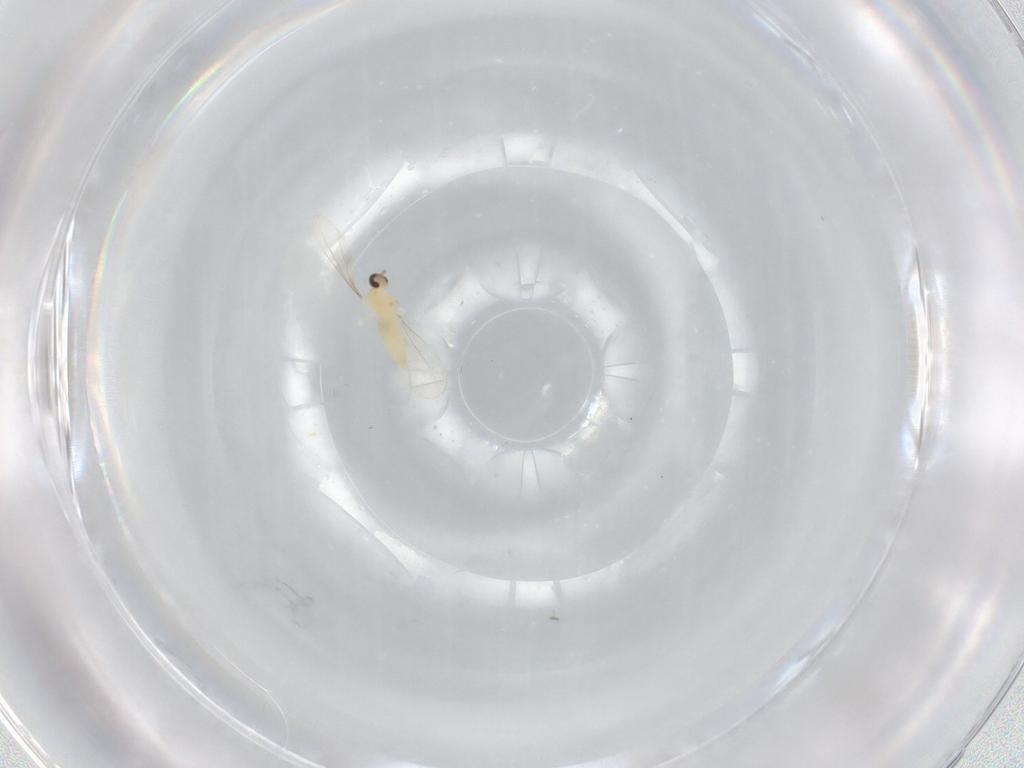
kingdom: Animalia
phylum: Arthropoda
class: Insecta
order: Diptera
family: Cecidomyiidae
